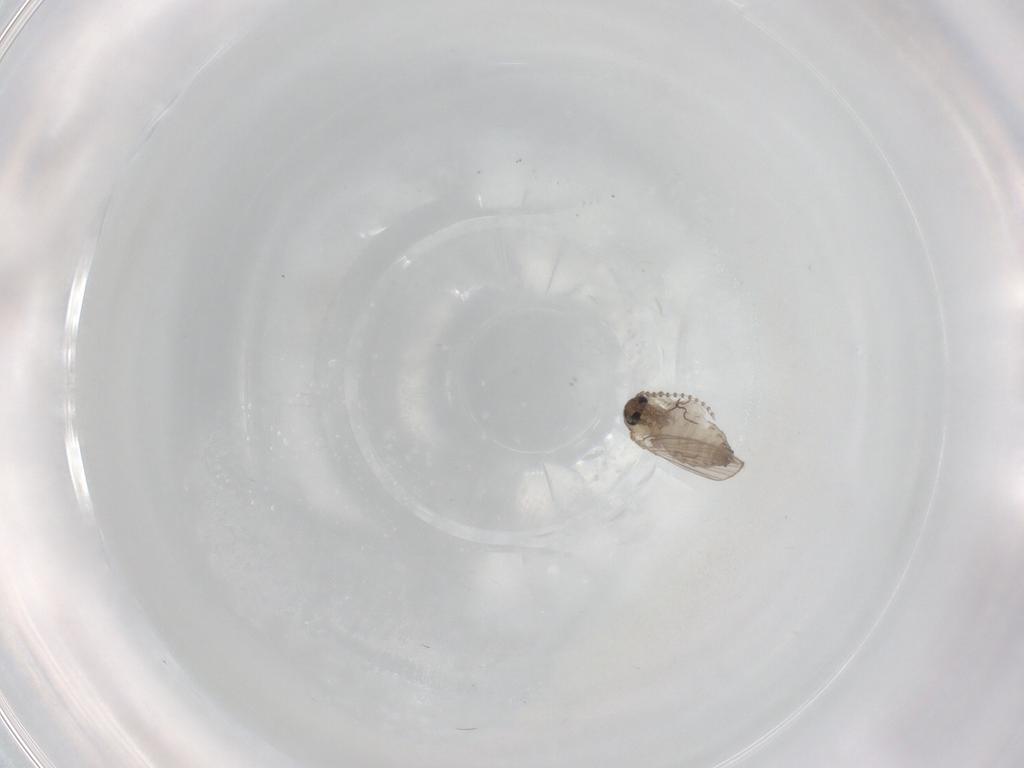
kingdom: Animalia
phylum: Arthropoda
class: Insecta
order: Diptera
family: Psychodidae
